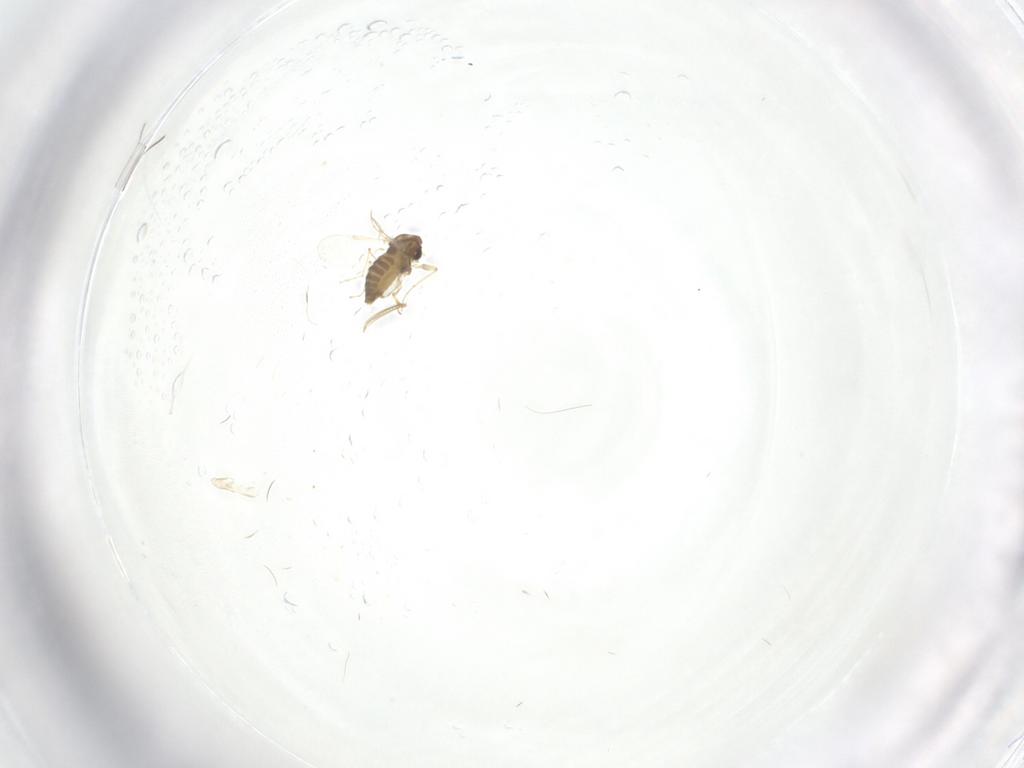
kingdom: Animalia
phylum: Arthropoda
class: Insecta
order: Diptera
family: Chironomidae
